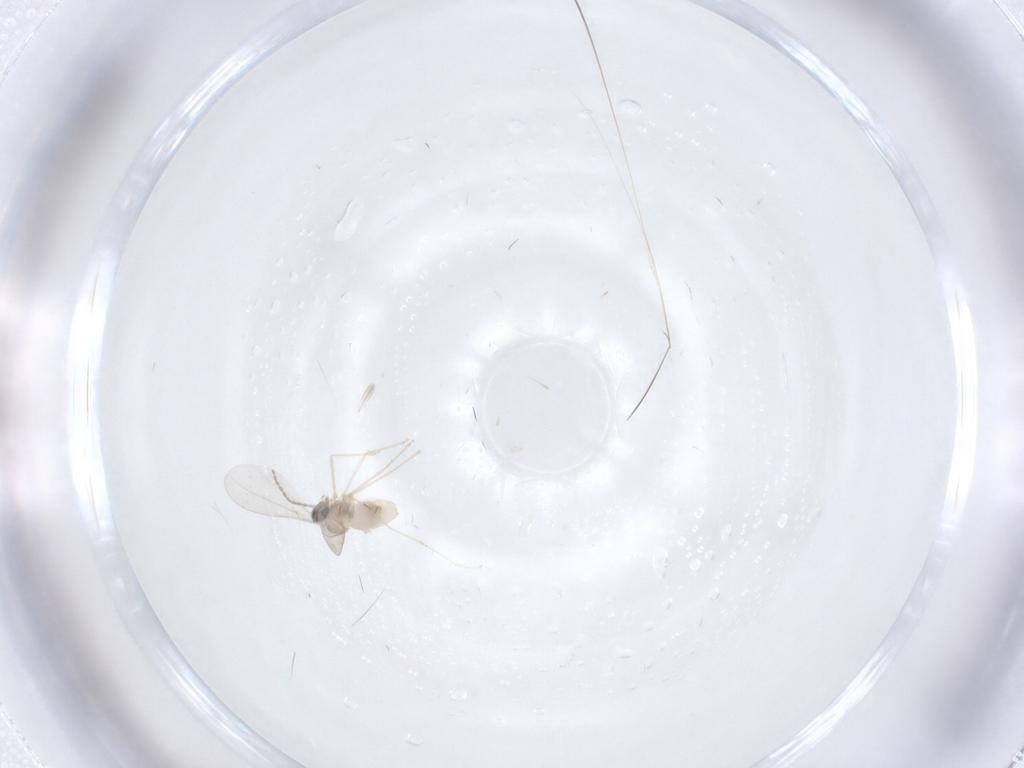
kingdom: Animalia
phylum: Arthropoda
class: Insecta
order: Diptera
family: Cecidomyiidae
